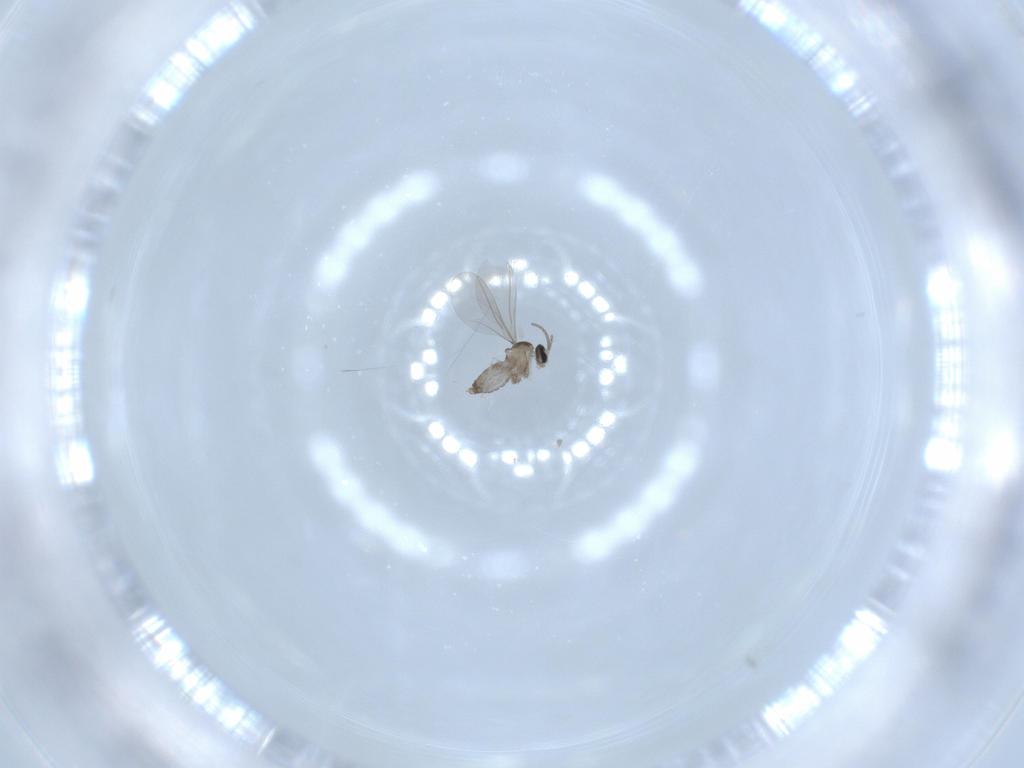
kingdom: Animalia
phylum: Arthropoda
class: Insecta
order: Diptera
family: Cecidomyiidae
